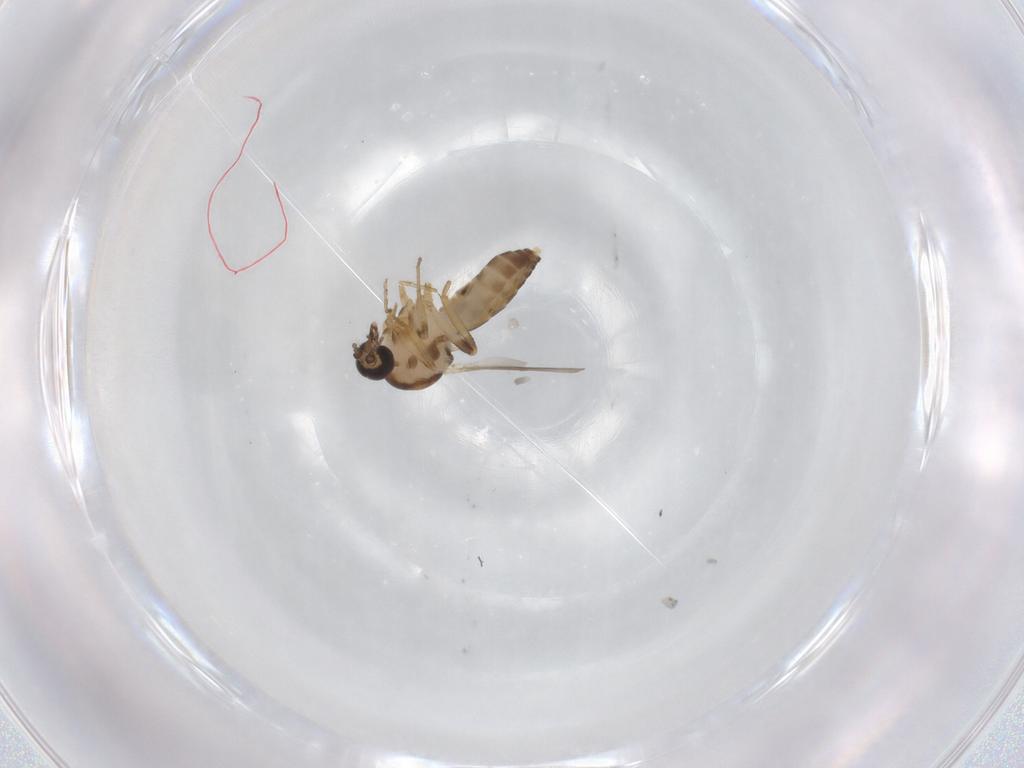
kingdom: Animalia
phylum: Arthropoda
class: Insecta
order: Diptera
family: Ceratopogonidae
